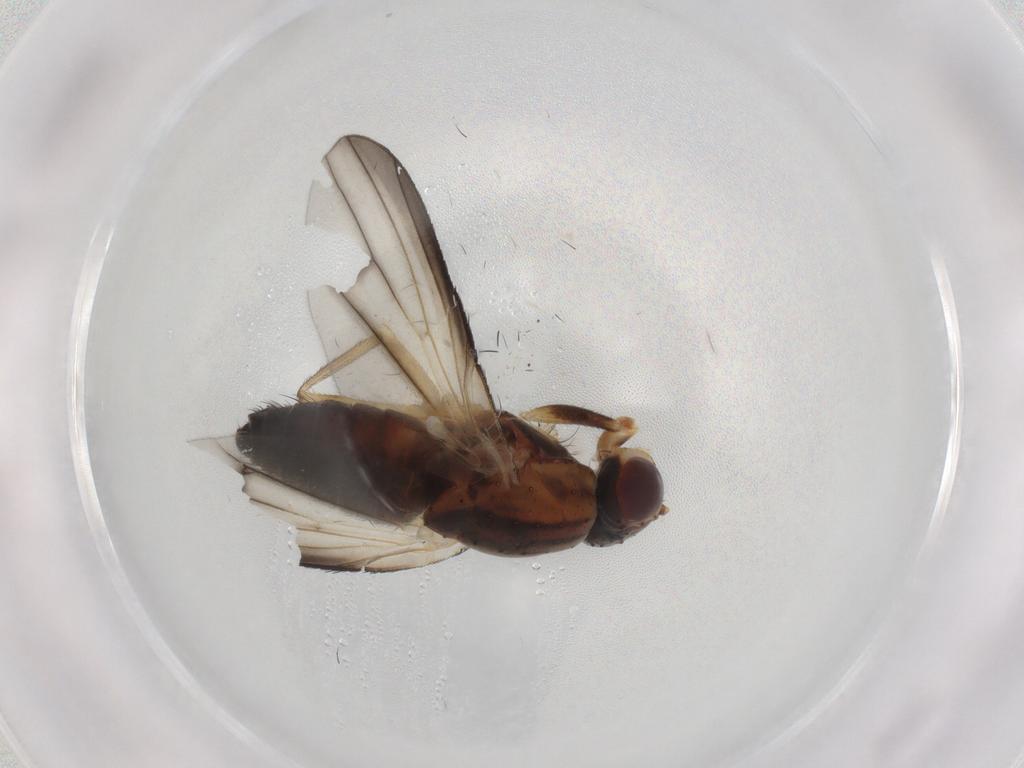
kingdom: Animalia
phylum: Arthropoda
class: Insecta
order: Diptera
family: Heleomyzidae
